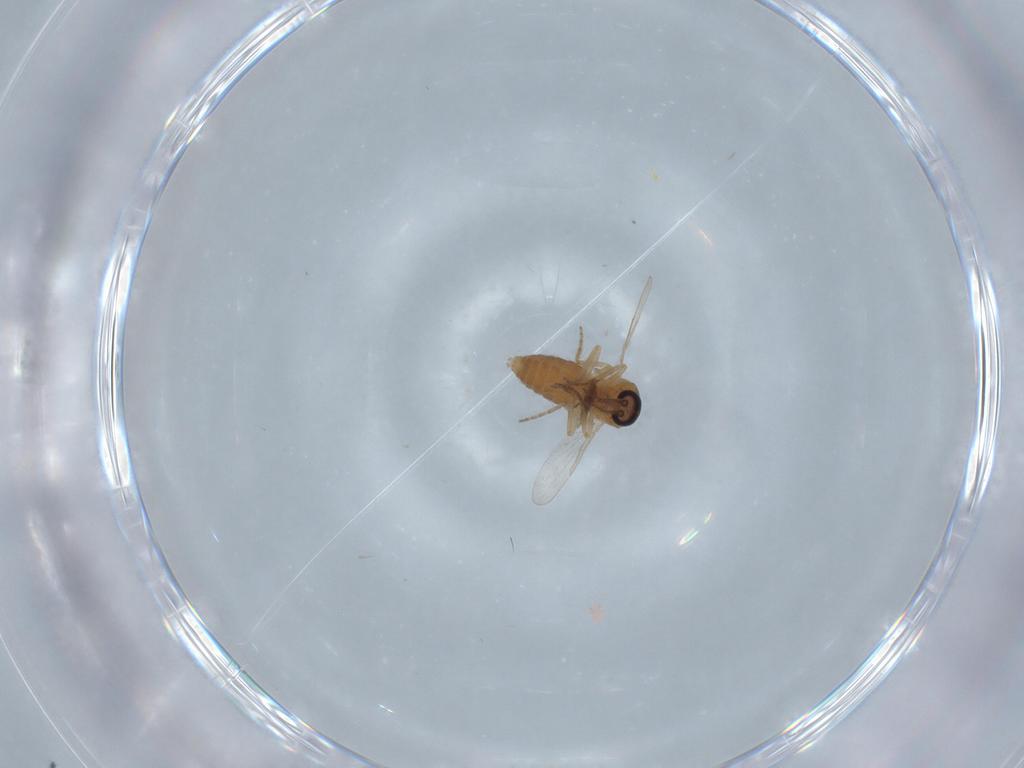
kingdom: Animalia
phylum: Arthropoda
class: Insecta
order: Diptera
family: Ceratopogonidae
